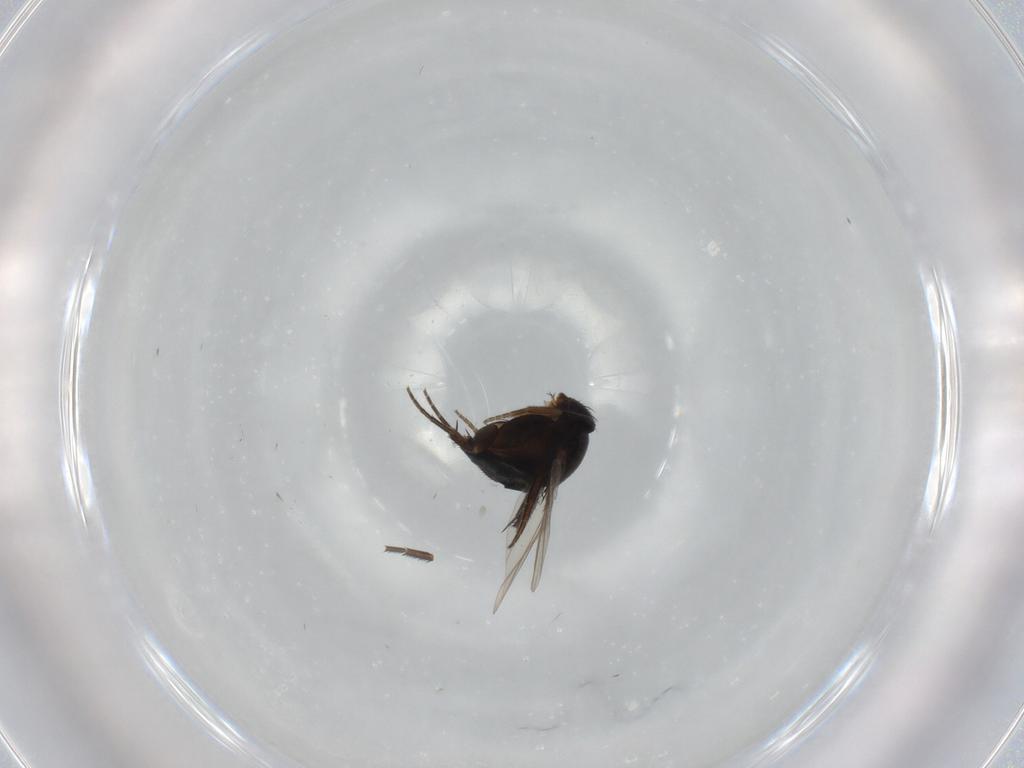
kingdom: Animalia
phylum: Arthropoda
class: Insecta
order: Diptera
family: Phoridae
